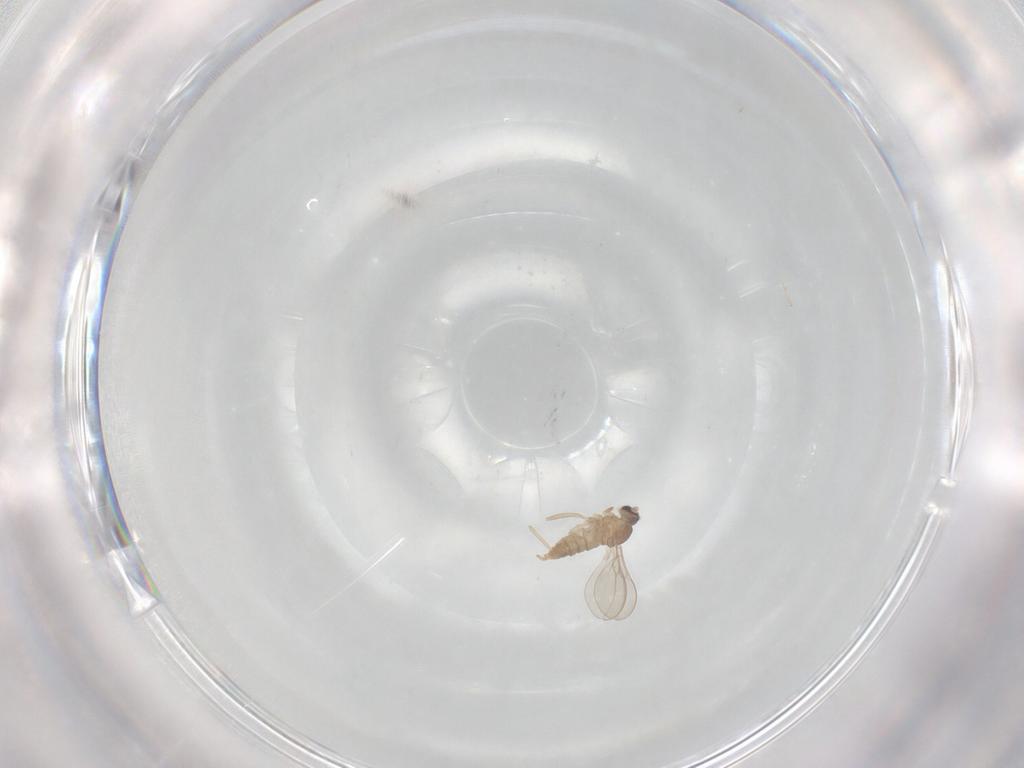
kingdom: Animalia
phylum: Arthropoda
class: Insecta
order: Diptera
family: Cecidomyiidae
